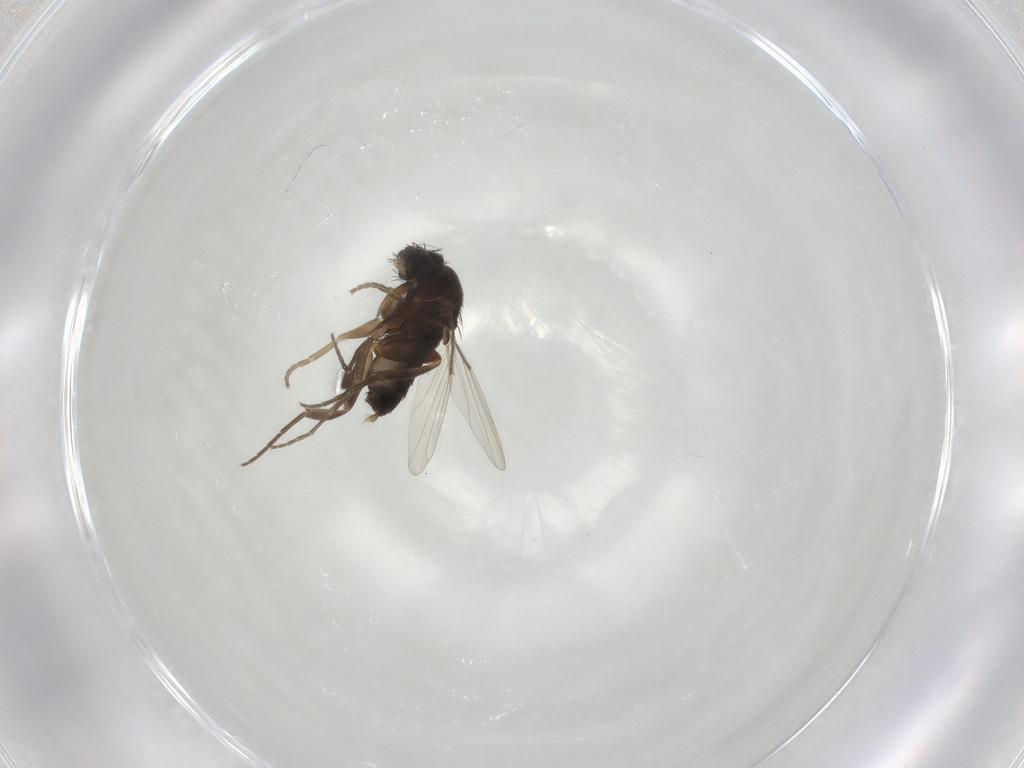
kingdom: Animalia
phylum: Arthropoda
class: Insecta
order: Diptera
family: Phoridae
